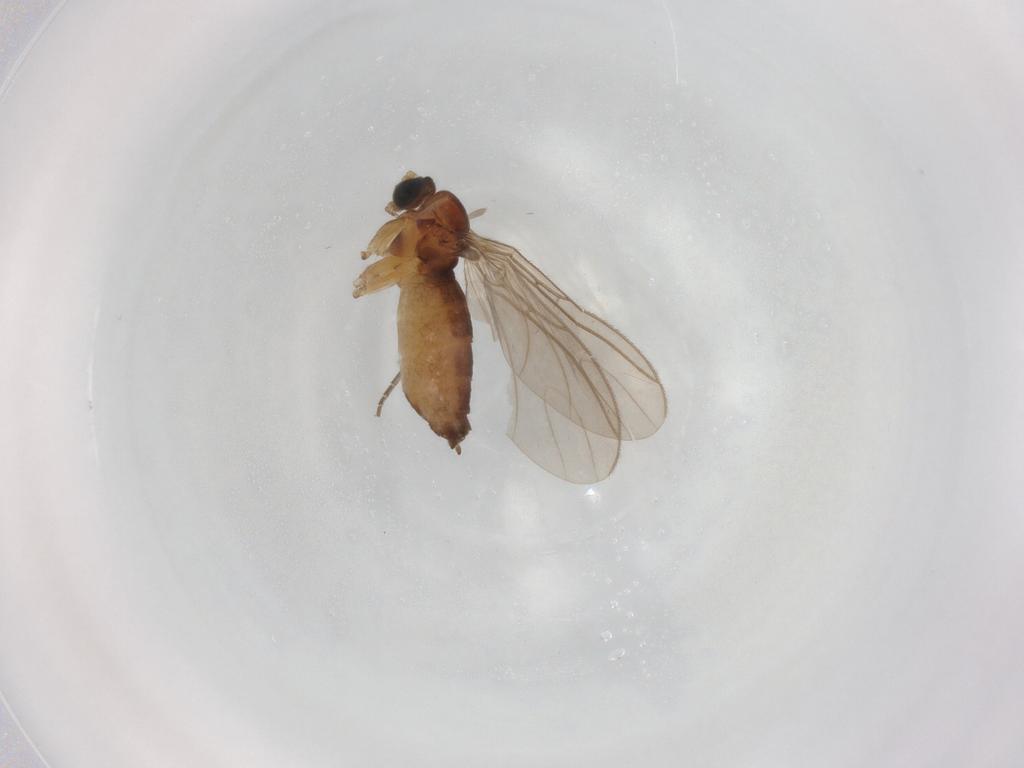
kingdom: Animalia
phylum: Arthropoda
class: Insecta
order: Diptera
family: Sciaridae
